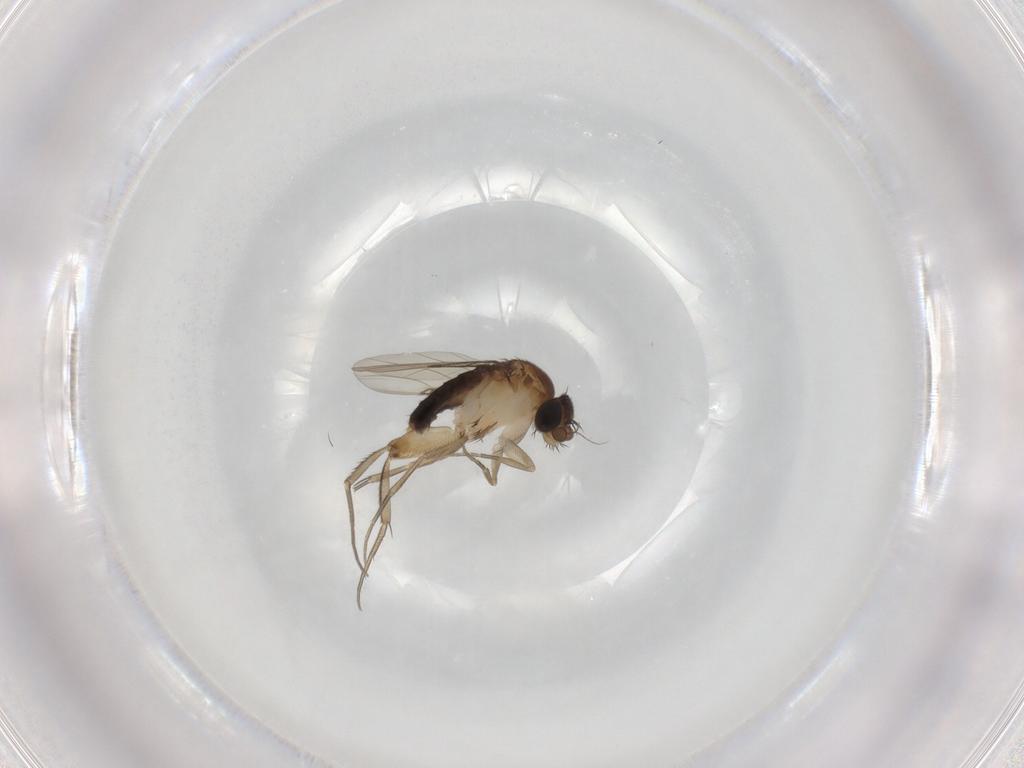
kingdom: Animalia
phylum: Arthropoda
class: Insecta
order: Diptera
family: Phoridae
